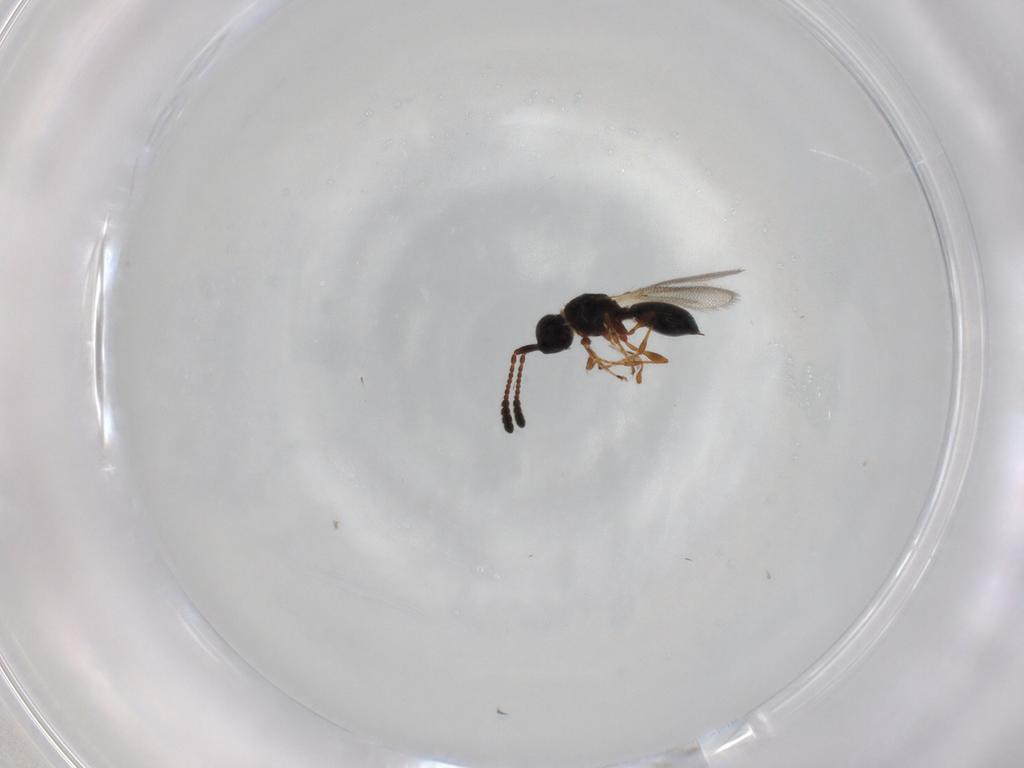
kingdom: Animalia
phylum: Arthropoda
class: Insecta
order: Hymenoptera
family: Diapriidae
